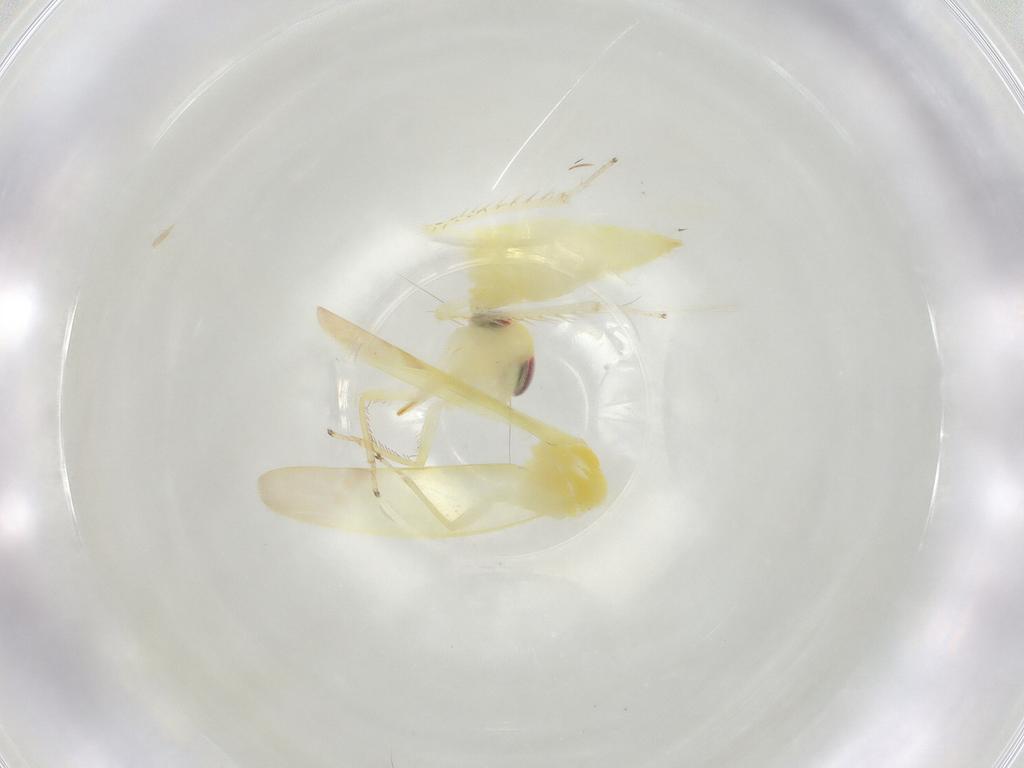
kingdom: Animalia
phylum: Arthropoda
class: Insecta
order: Hemiptera
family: Cicadellidae
